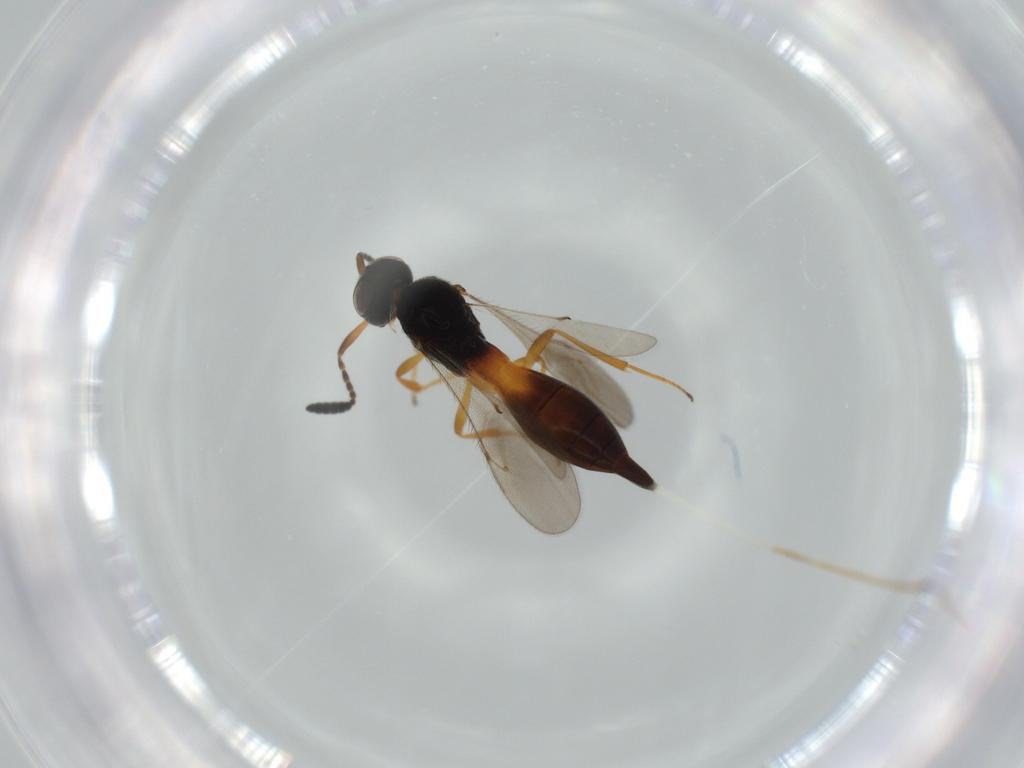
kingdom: Animalia
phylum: Arthropoda
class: Insecta
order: Hymenoptera
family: Scelionidae
